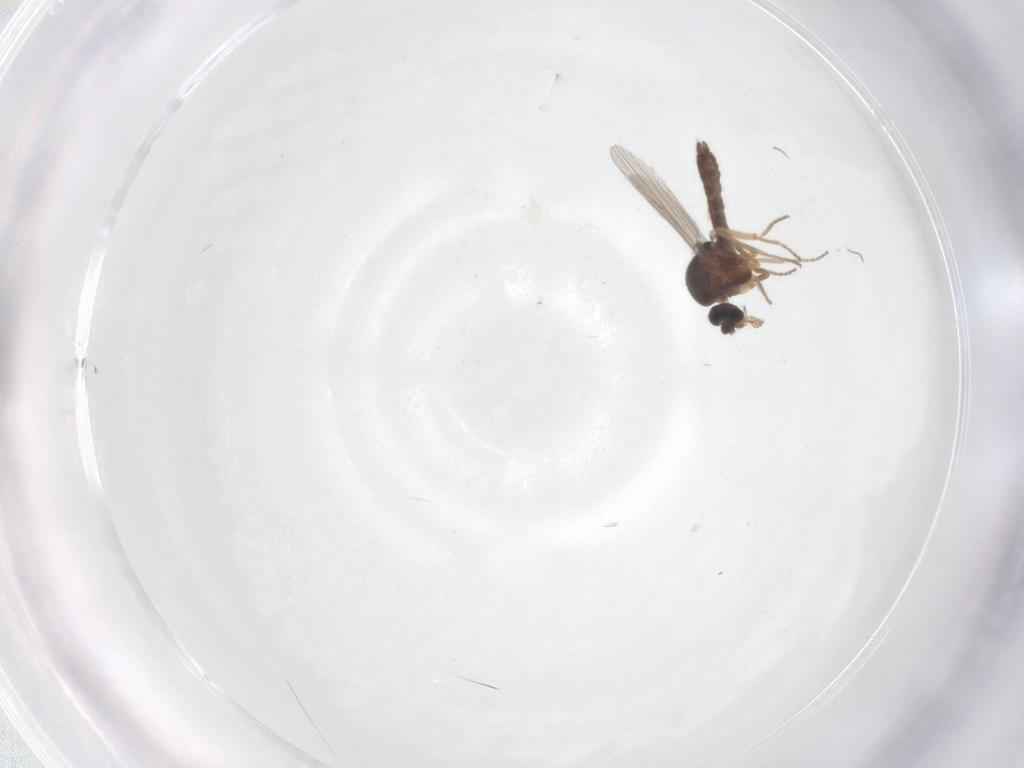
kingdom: Animalia
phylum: Arthropoda
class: Insecta
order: Diptera
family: Ceratopogonidae
